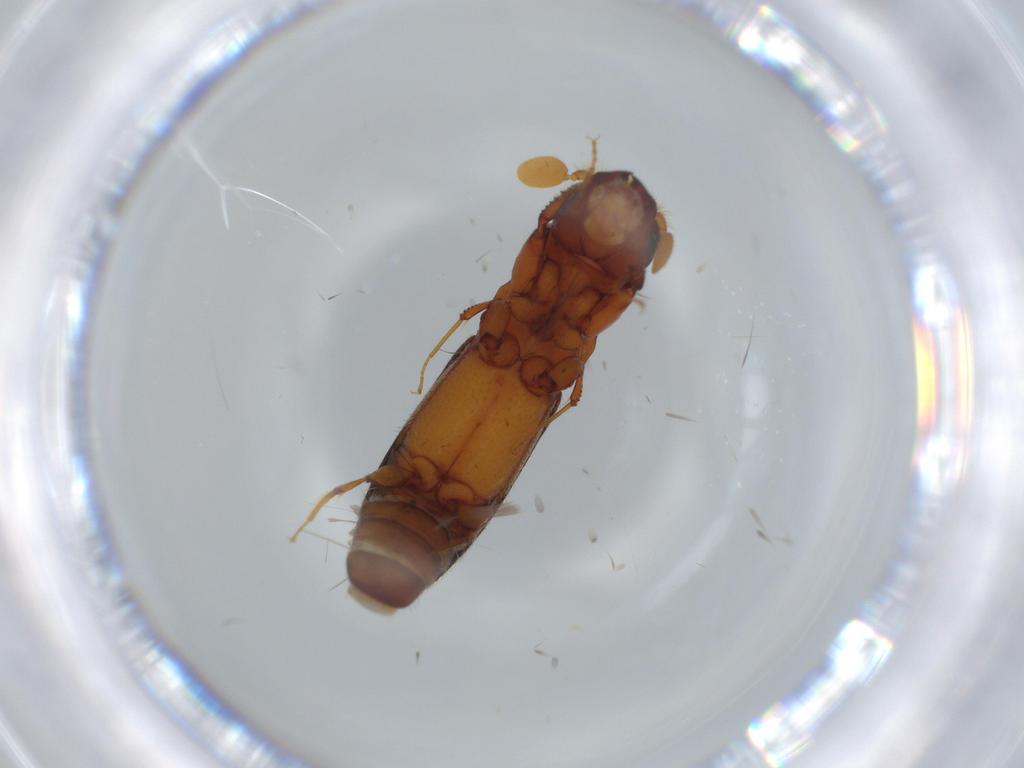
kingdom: Animalia
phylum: Arthropoda
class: Insecta
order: Coleoptera
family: Curculionidae
